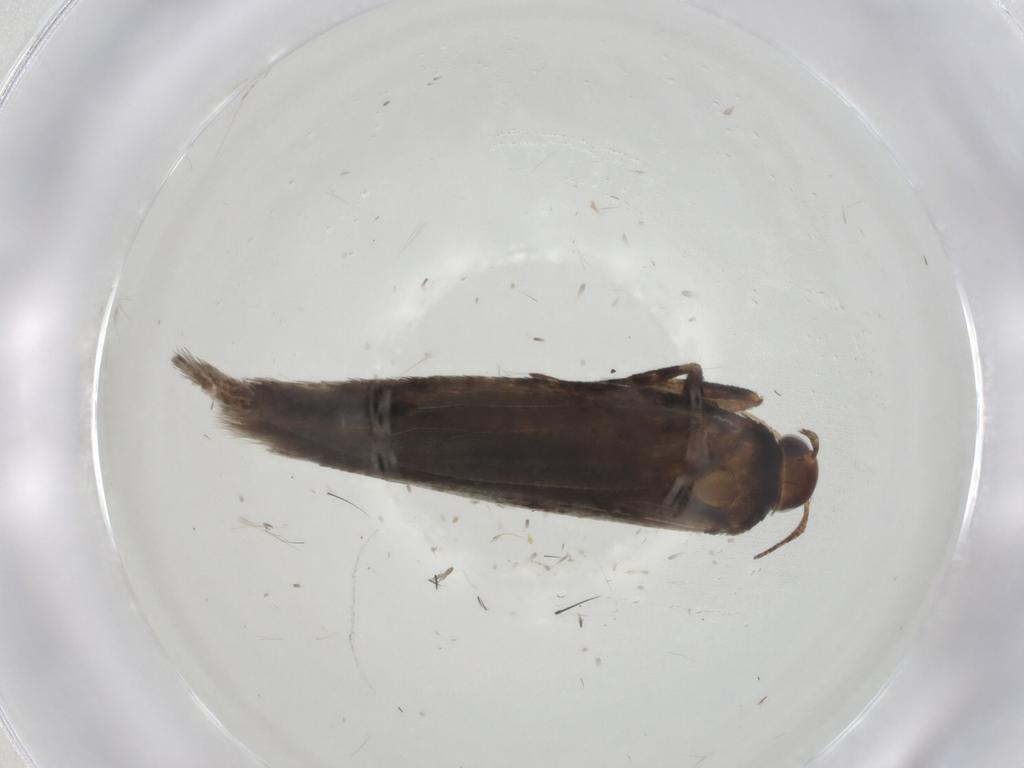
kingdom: Animalia
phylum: Arthropoda
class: Insecta
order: Lepidoptera
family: Gelechiidae
